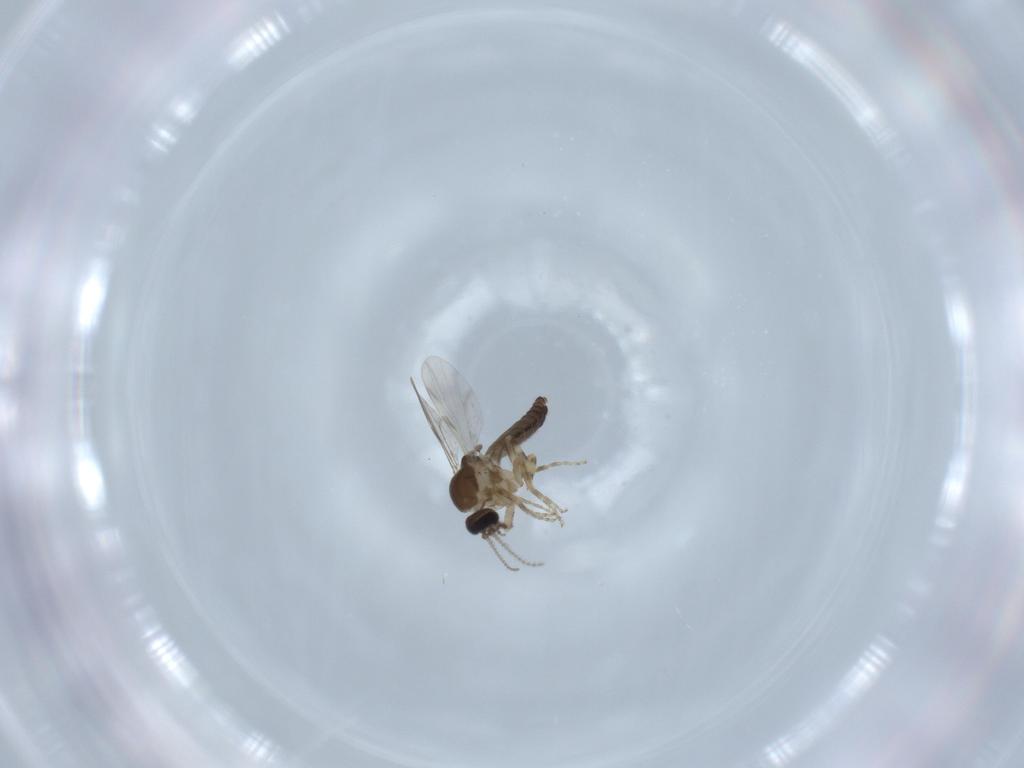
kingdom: Animalia
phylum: Arthropoda
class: Insecta
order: Diptera
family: Ceratopogonidae
